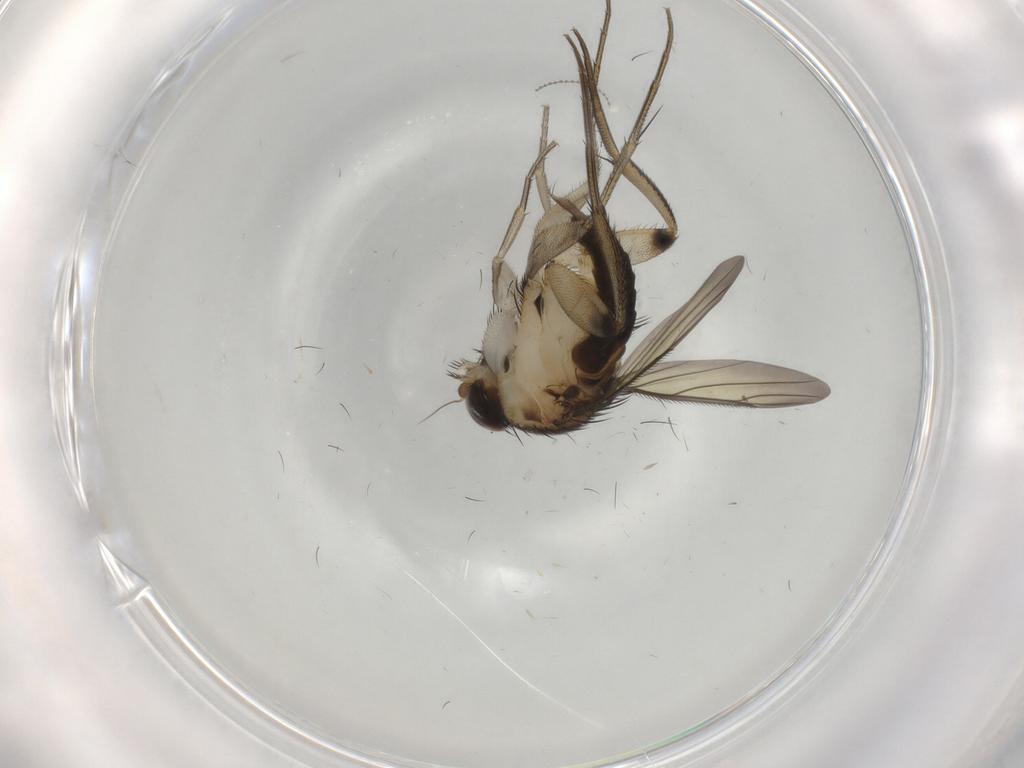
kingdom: Animalia
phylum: Arthropoda
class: Insecta
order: Diptera
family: Phoridae
